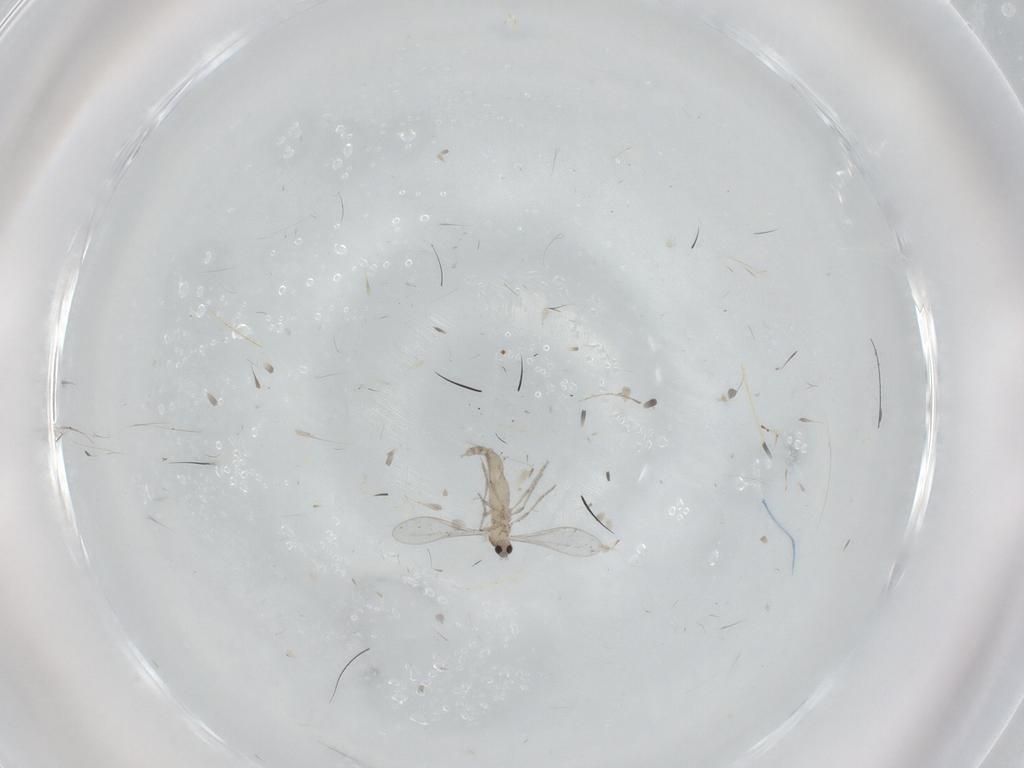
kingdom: Animalia
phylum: Arthropoda
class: Insecta
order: Diptera
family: Cecidomyiidae
